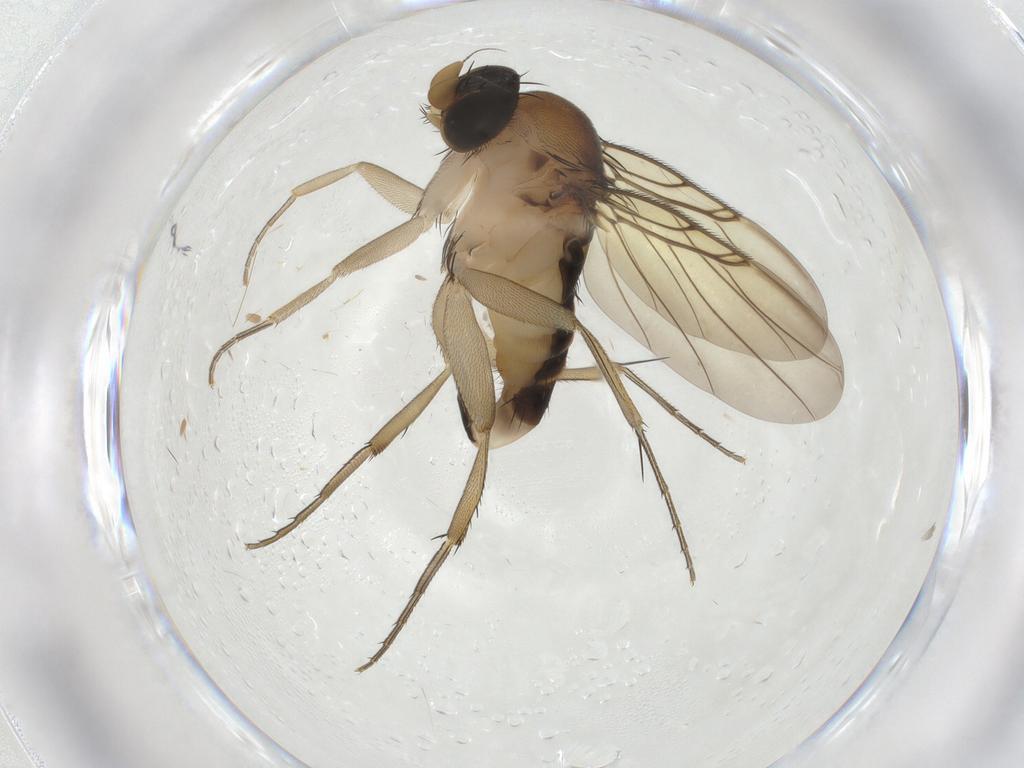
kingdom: Animalia
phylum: Arthropoda
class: Insecta
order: Diptera
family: Phoridae
